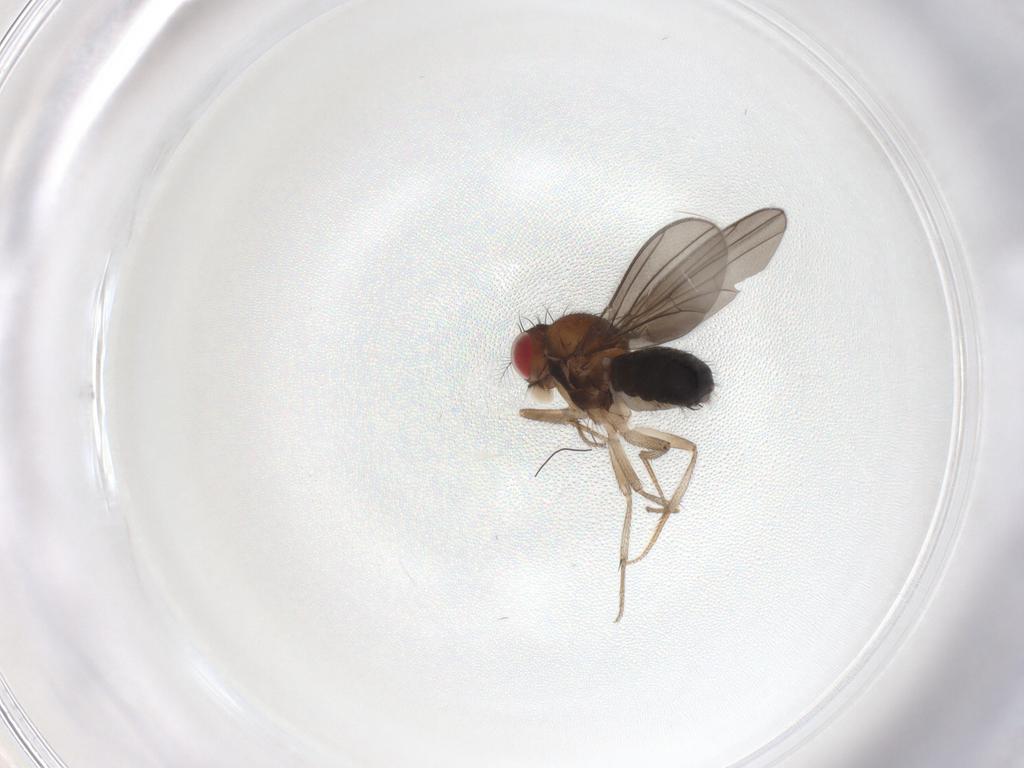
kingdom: Animalia
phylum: Arthropoda
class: Insecta
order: Diptera
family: Drosophilidae
